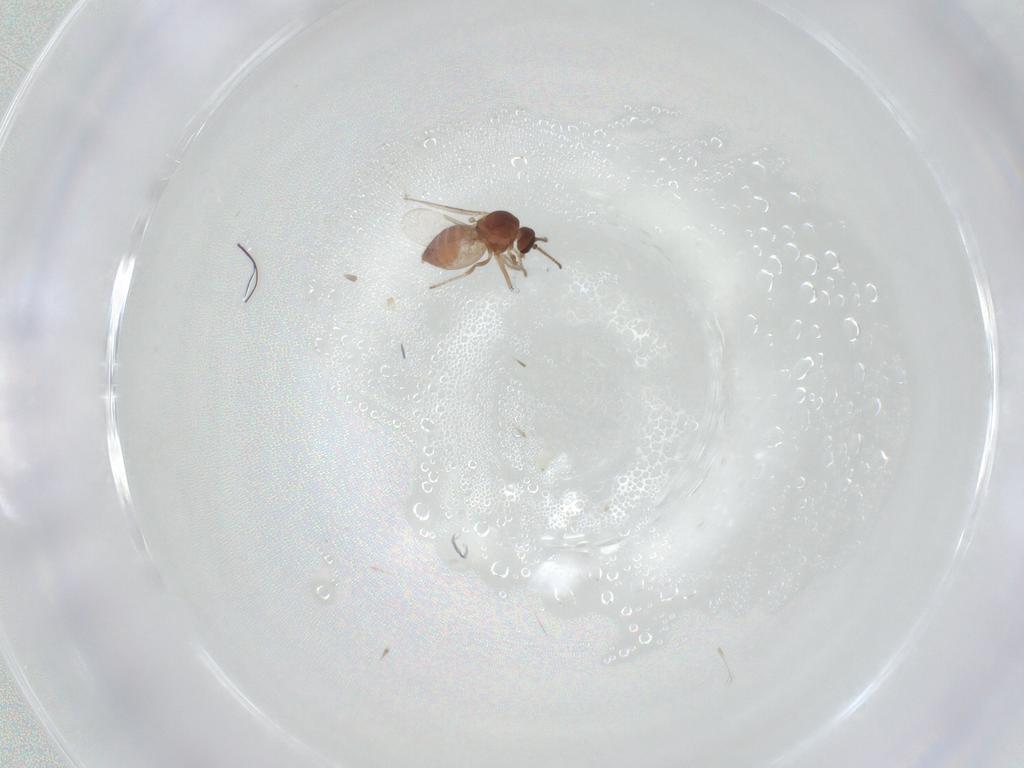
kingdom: Animalia
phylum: Arthropoda
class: Insecta
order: Diptera
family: Ceratopogonidae
